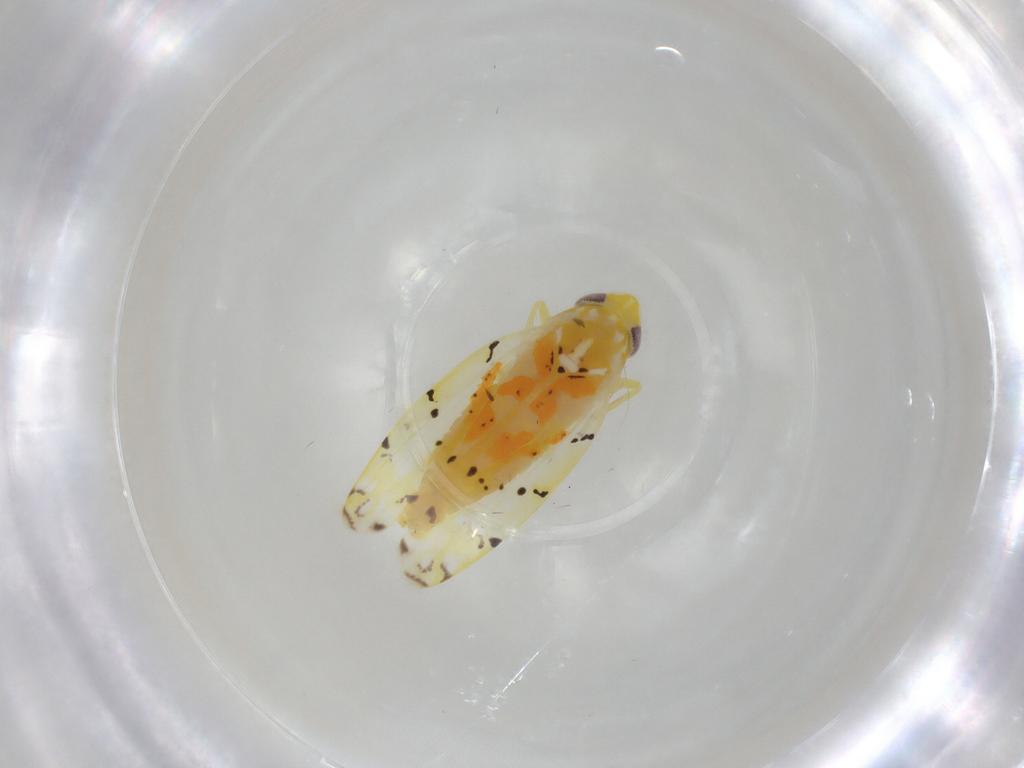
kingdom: Animalia
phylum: Arthropoda
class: Insecta
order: Hemiptera
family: Cicadellidae
